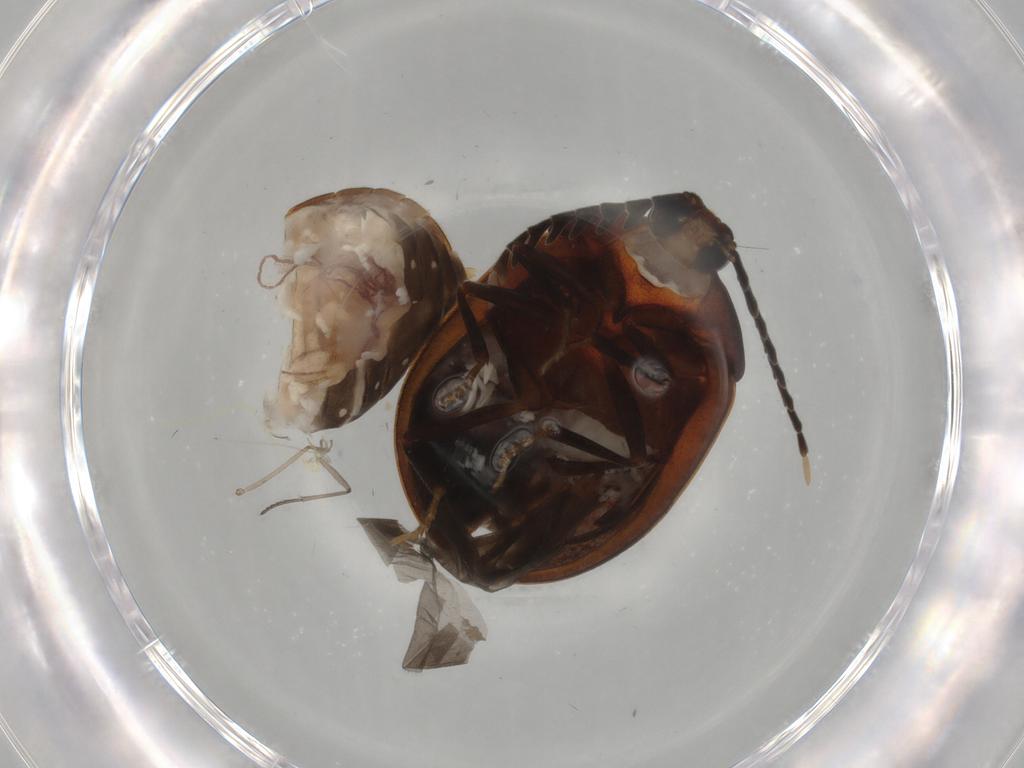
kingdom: Animalia
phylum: Arthropoda
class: Insecta
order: Coleoptera
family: Psephenidae
